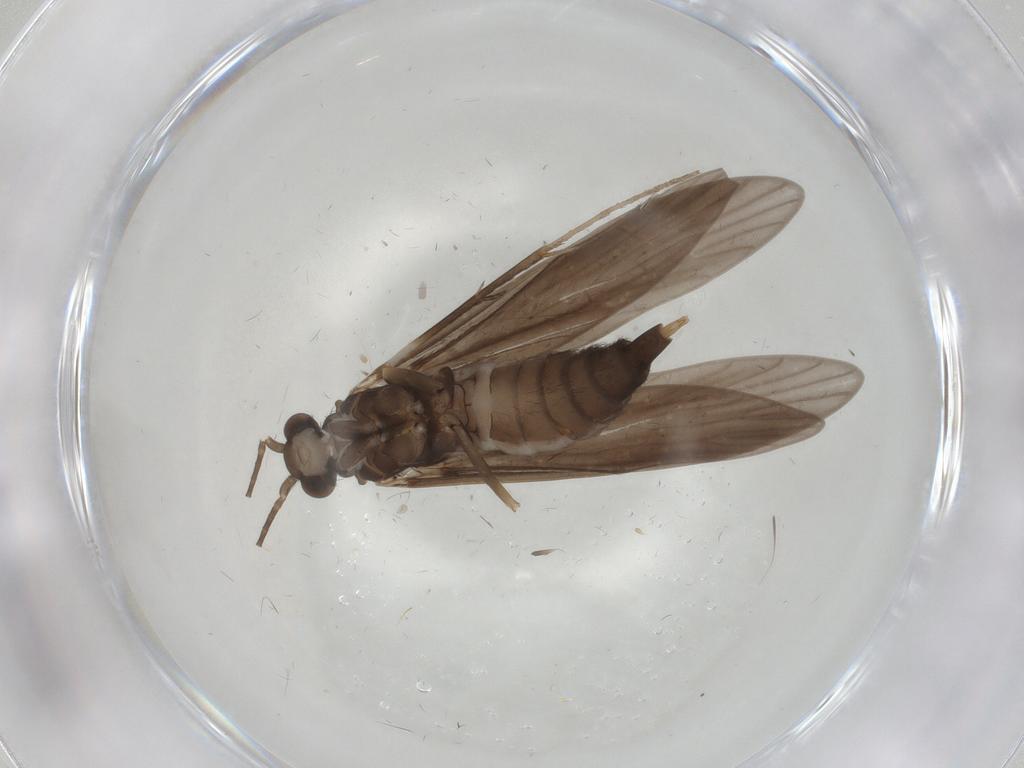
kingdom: Animalia
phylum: Arthropoda
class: Insecta
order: Trichoptera
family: Xiphocentronidae
